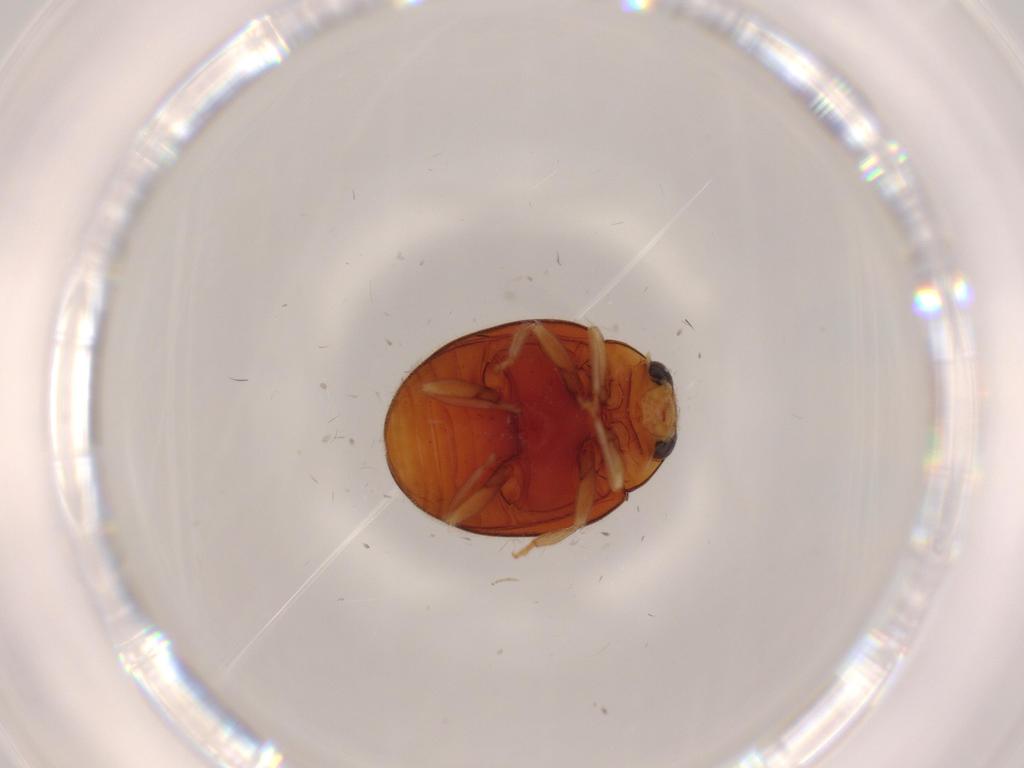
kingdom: Animalia
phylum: Arthropoda
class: Insecta
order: Coleoptera
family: Coccinellidae
